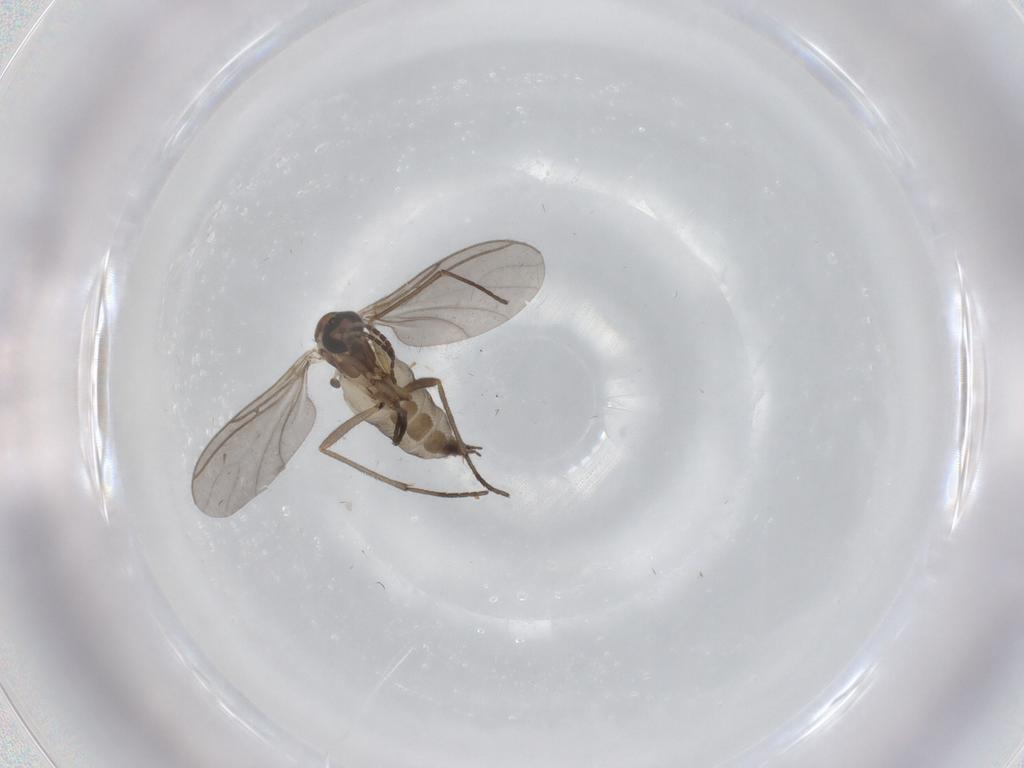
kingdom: Animalia
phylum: Arthropoda
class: Insecta
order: Diptera
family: Sciaridae
